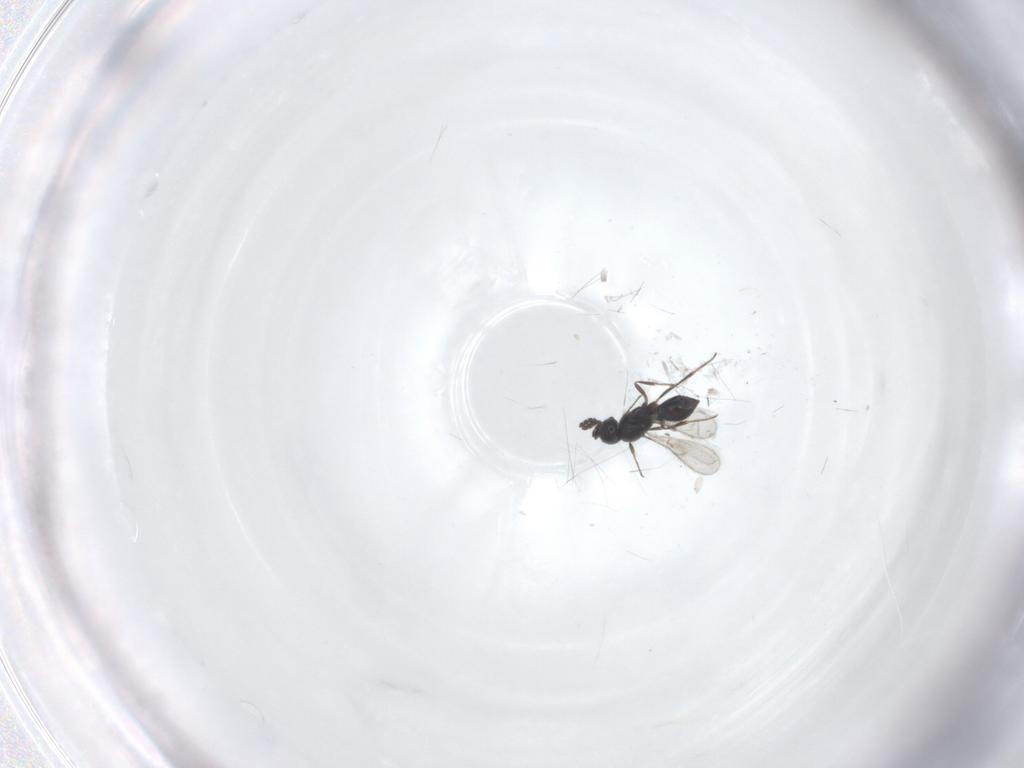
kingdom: Animalia
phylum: Arthropoda
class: Insecta
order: Hymenoptera
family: Scelionidae
